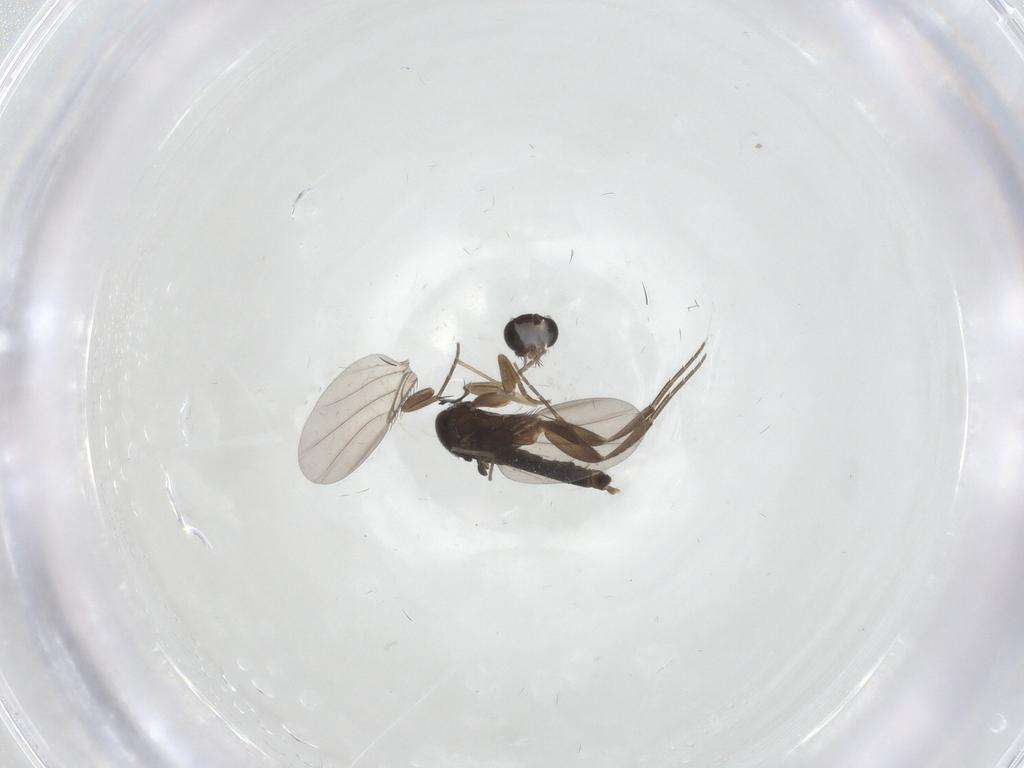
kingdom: Animalia
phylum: Arthropoda
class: Insecta
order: Diptera
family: Phoridae
